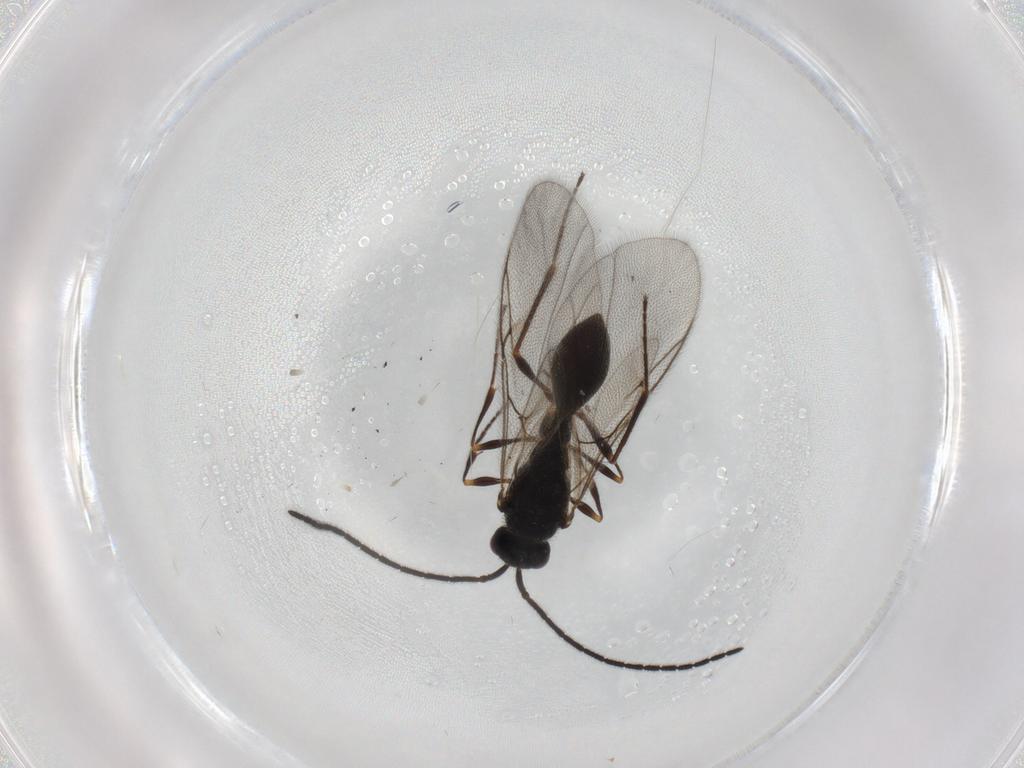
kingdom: Animalia
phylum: Arthropoda
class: Insecta
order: Hymenoptera
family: Diapriidae
